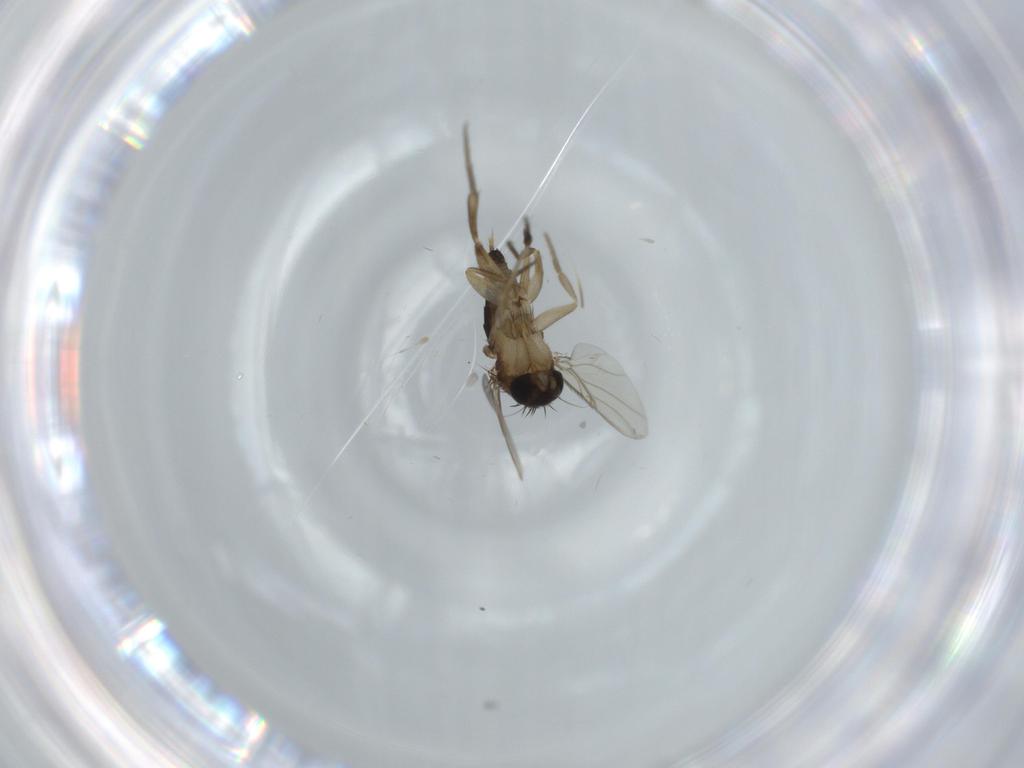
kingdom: Animalia
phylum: Arthropoda
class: Insecta
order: Diptera
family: Phoridae
